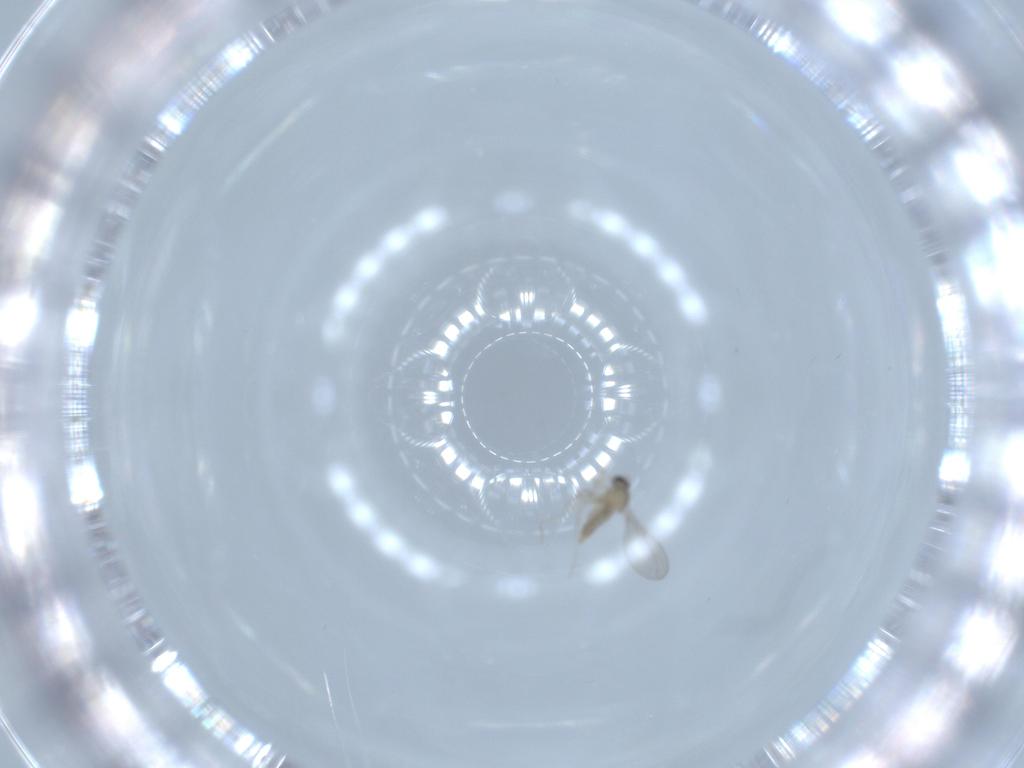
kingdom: Animalia
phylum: Arthropoda
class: Insecta
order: Diptera
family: Cecidomyiidae
